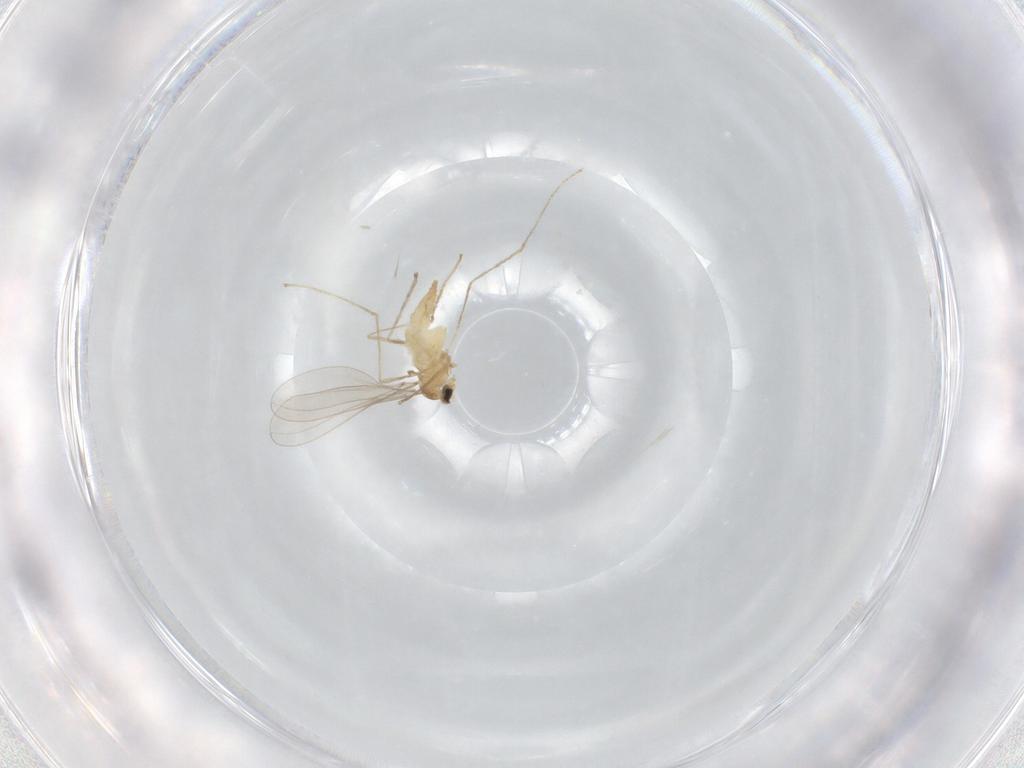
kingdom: Animalia
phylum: Arthropoda
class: Insecta
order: Diptera
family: Cecidomyiidae
